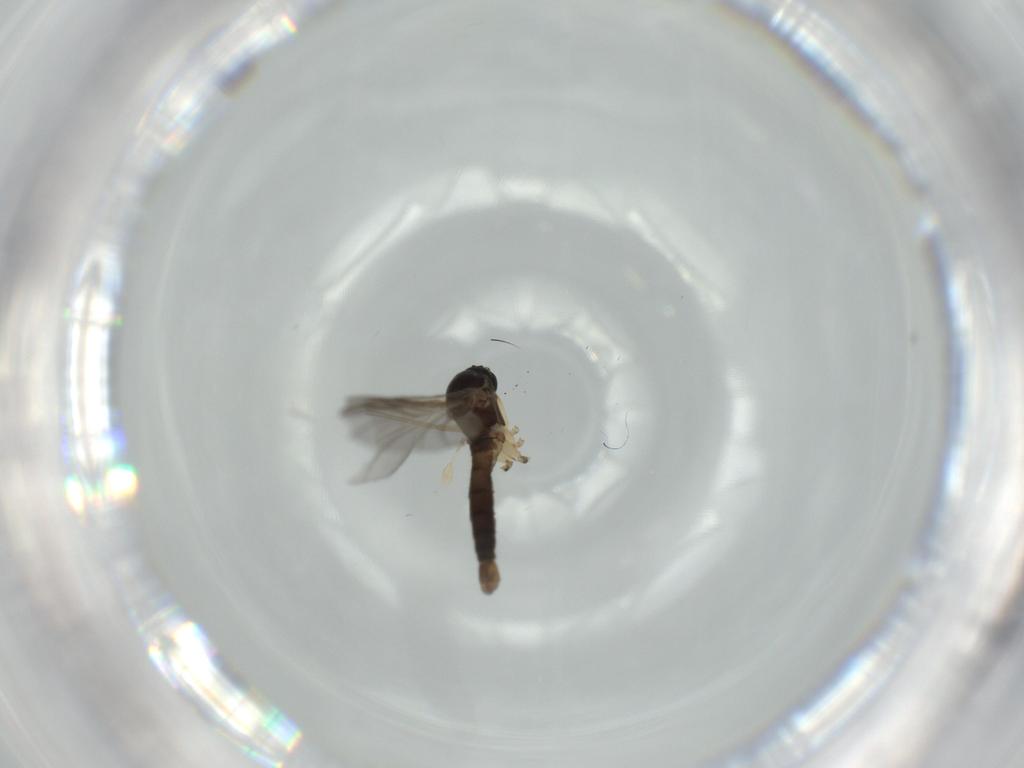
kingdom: Animalia
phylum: Arthropoda
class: Insecta
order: Diptera
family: Sciaridae
